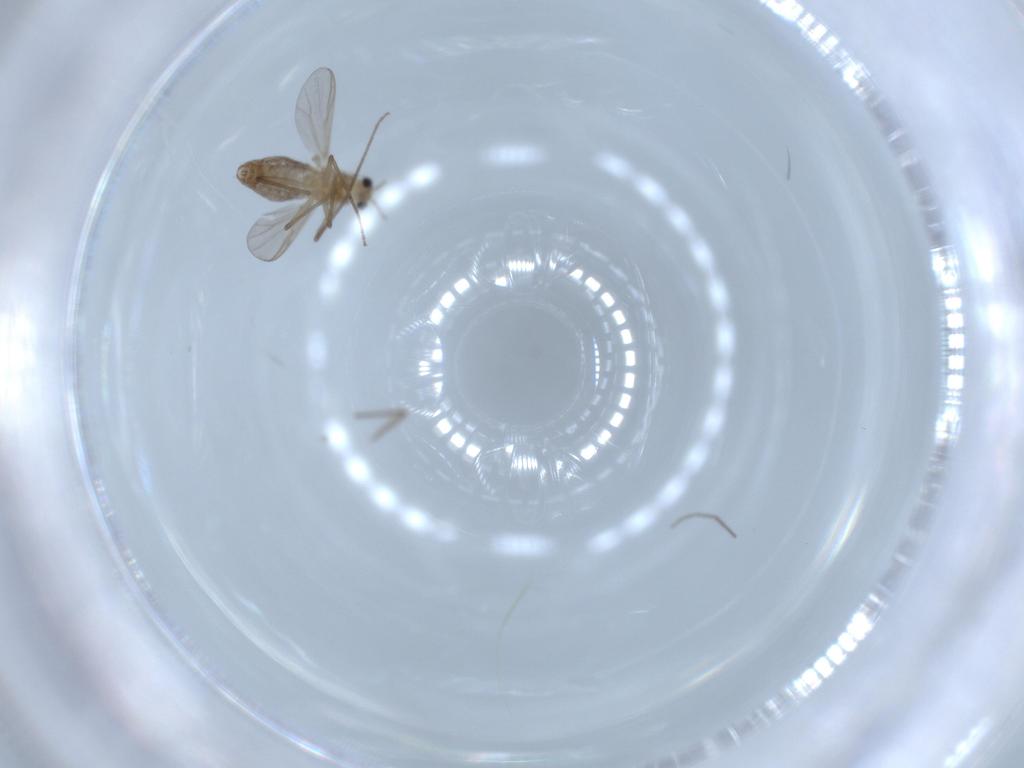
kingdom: Animalia
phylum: Arthropoda
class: Insecta
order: Diptera
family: Chironomidae
